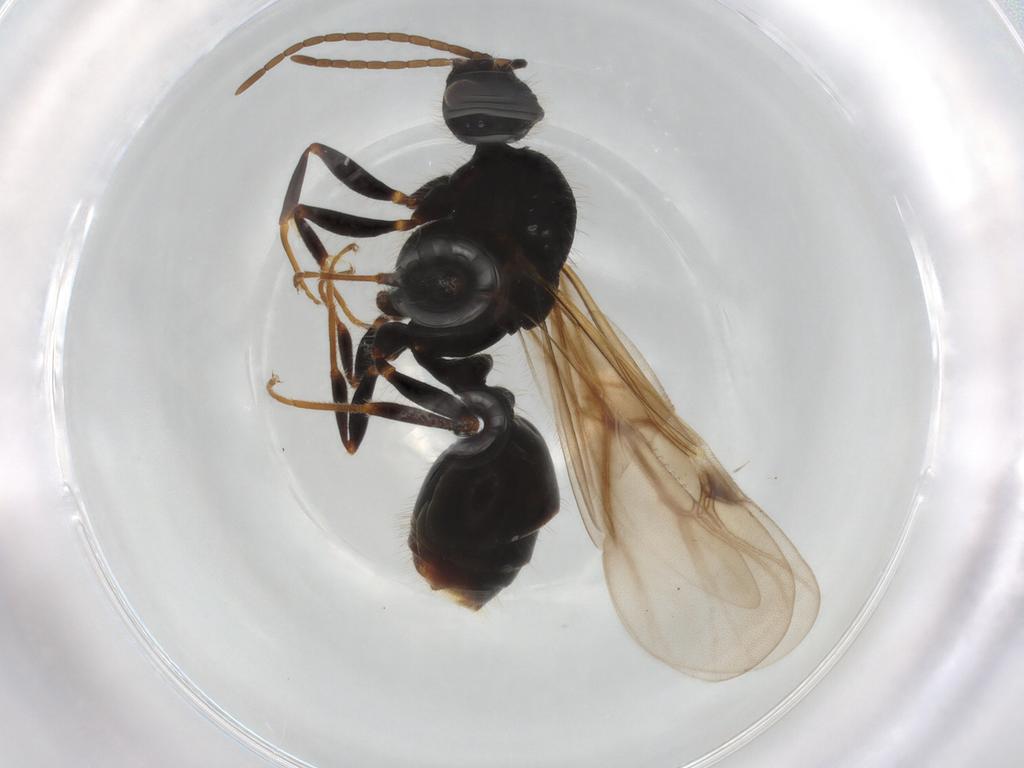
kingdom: Animalia
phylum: Arthropoda
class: Insecta
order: Hymenoptera
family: Formicidae
